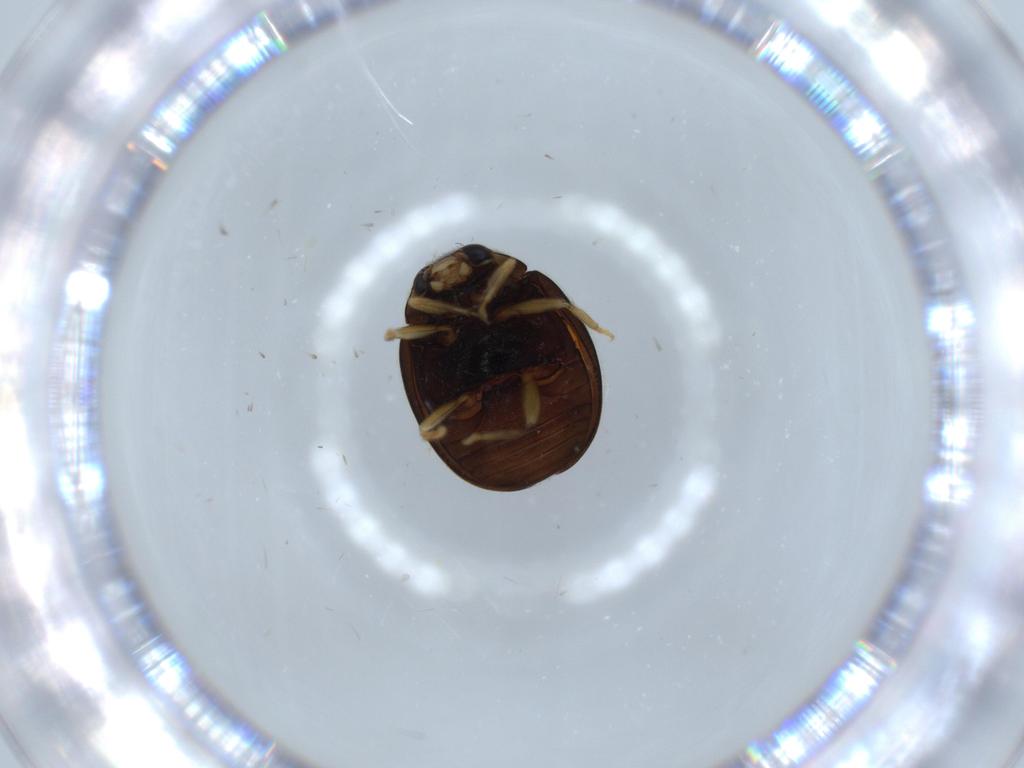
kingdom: Animalia
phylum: Arthropoda
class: Insecta
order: Coleoptera
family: Coccinellidae
